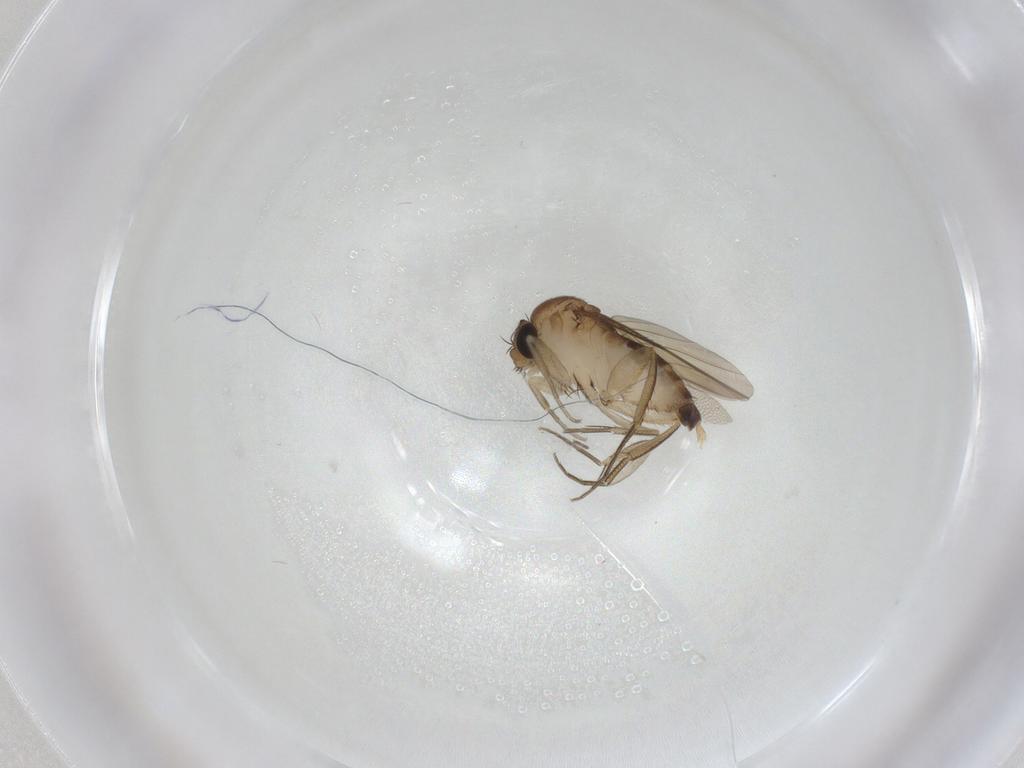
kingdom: Animalia
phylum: Arthropoda
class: Insecta
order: Diptera
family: Phoridae
